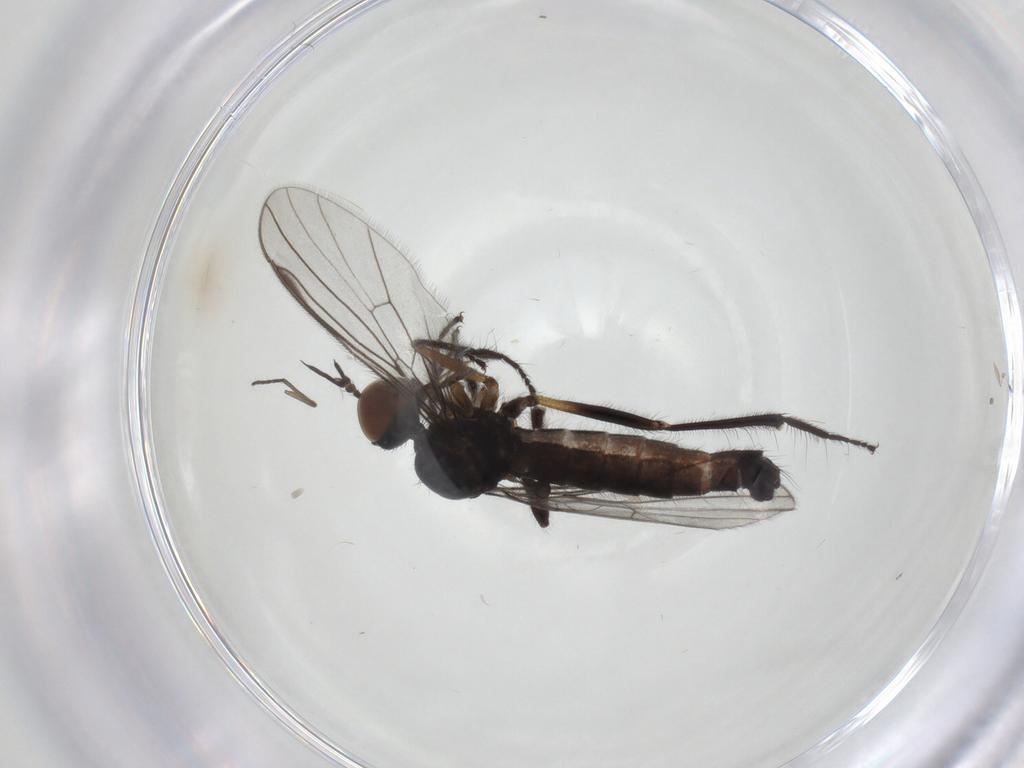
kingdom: Animalia
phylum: Arthropoda
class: Insecta
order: Diptera
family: Empididae
